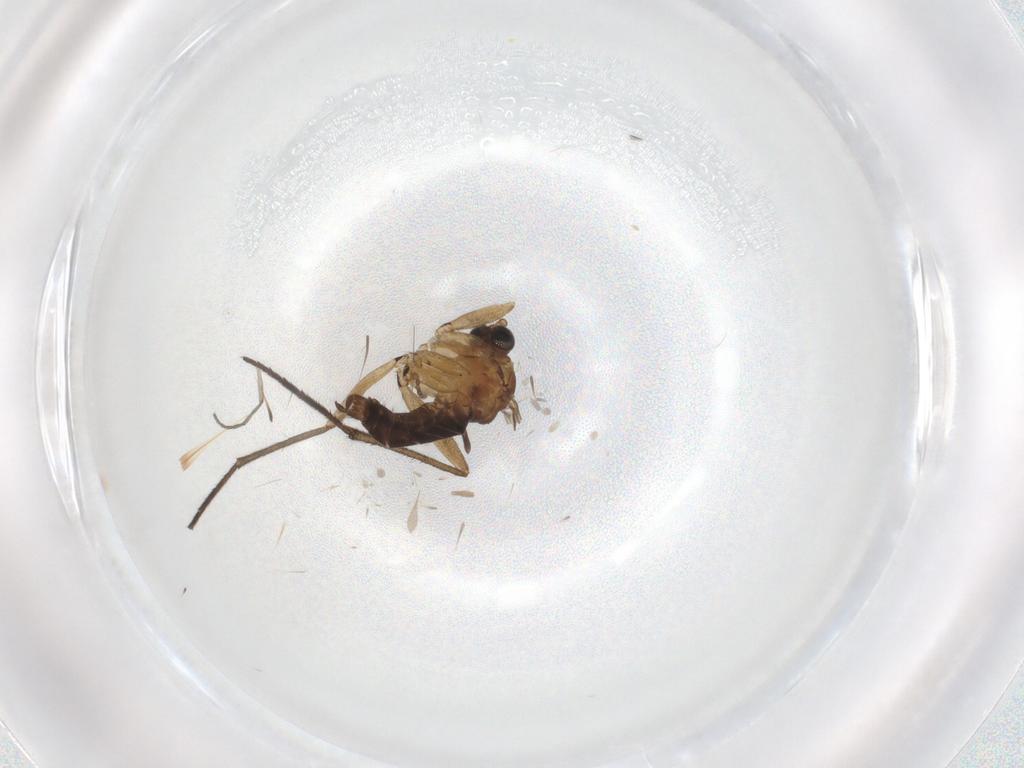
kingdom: Animalia
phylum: Arthropoda
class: Insecta
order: Diptera
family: Cecidomyiidae
